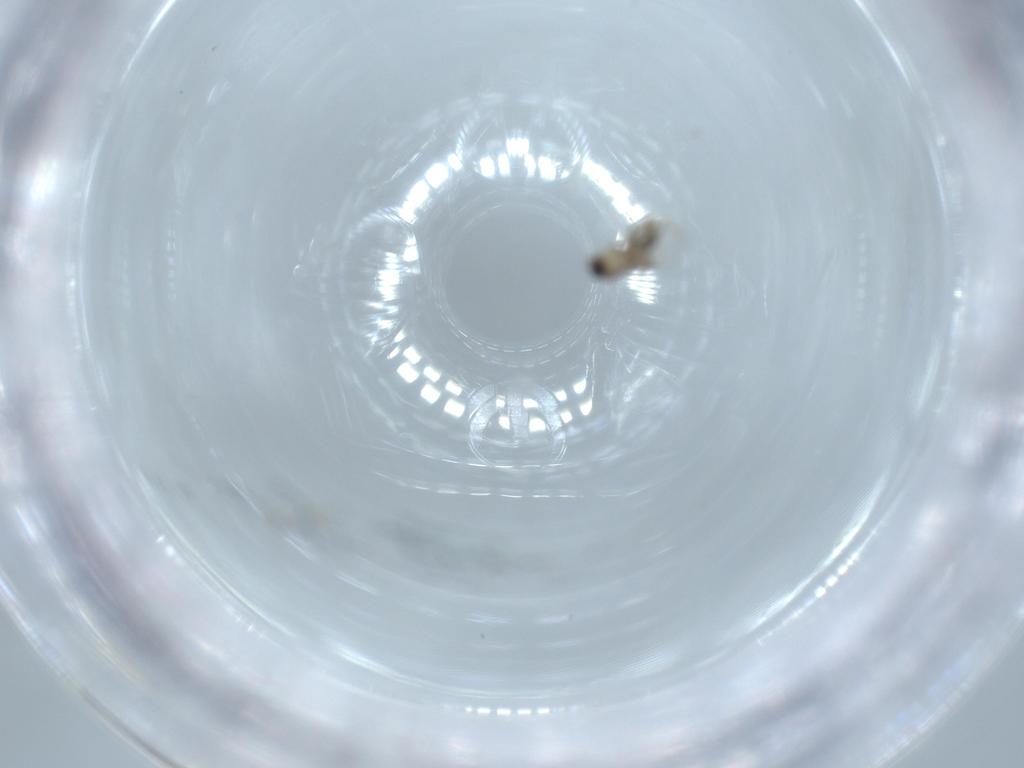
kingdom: Animalia
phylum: Arthropoda
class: Insecta
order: Diptera
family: Phoridae
